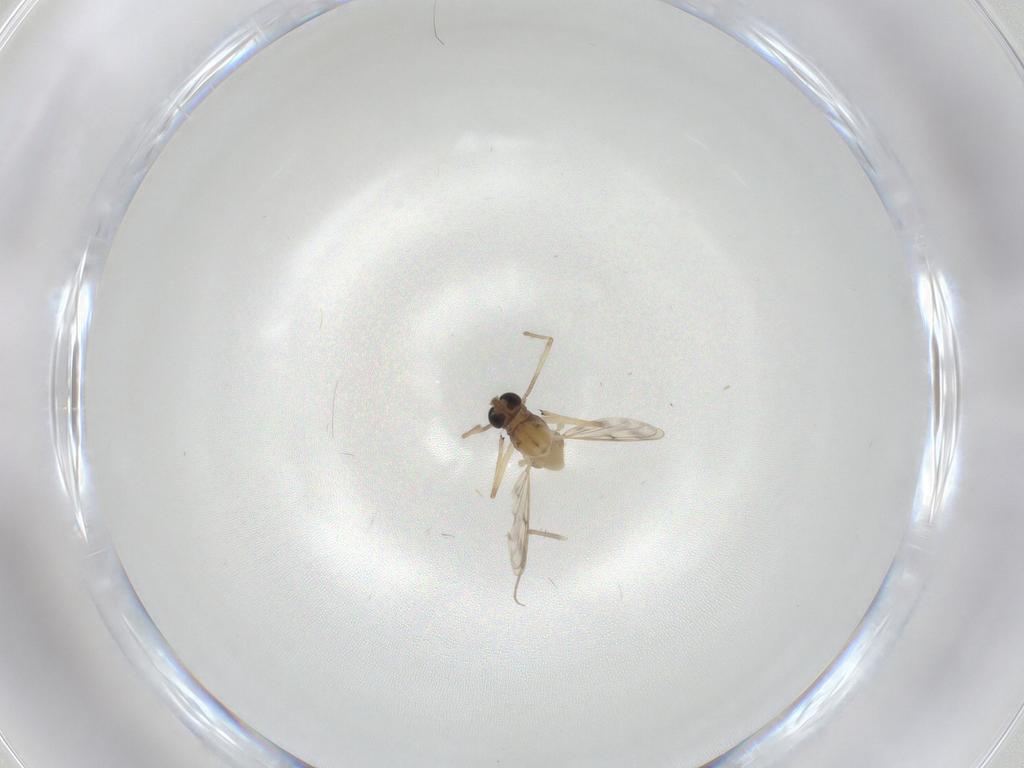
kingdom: Animalia
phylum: Arthropoda
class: Insecta
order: Diptera
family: Chironomidae
